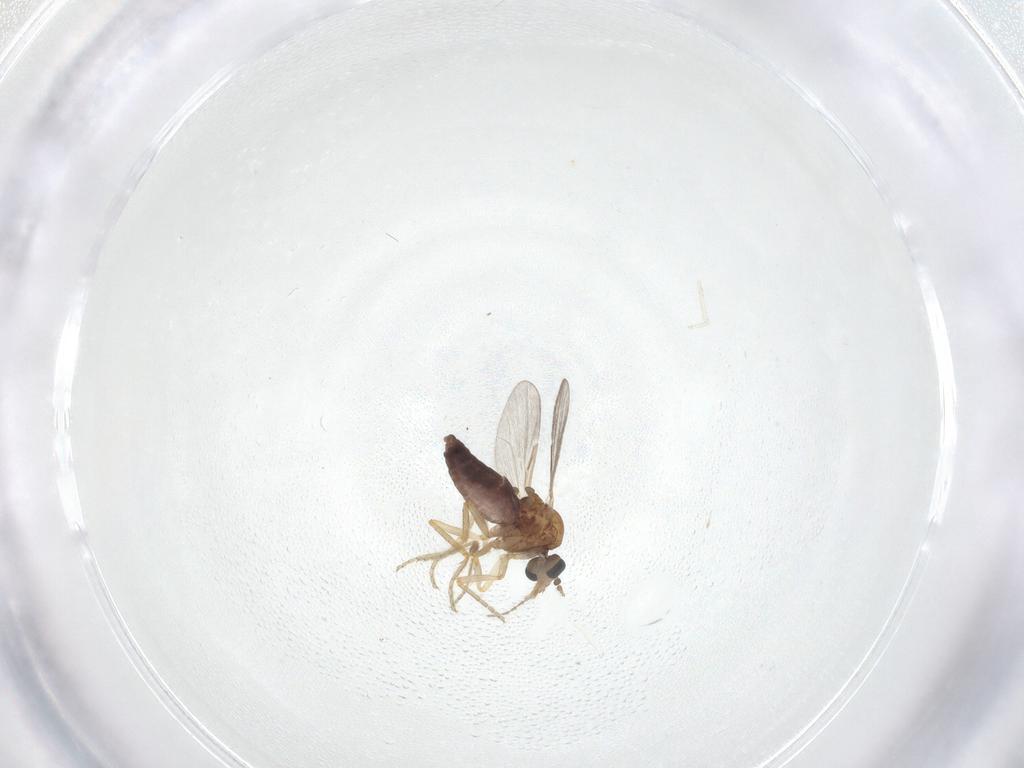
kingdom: Animalia
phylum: Arthropoda
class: Insecta
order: Diptera
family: Ceratopogonidae
